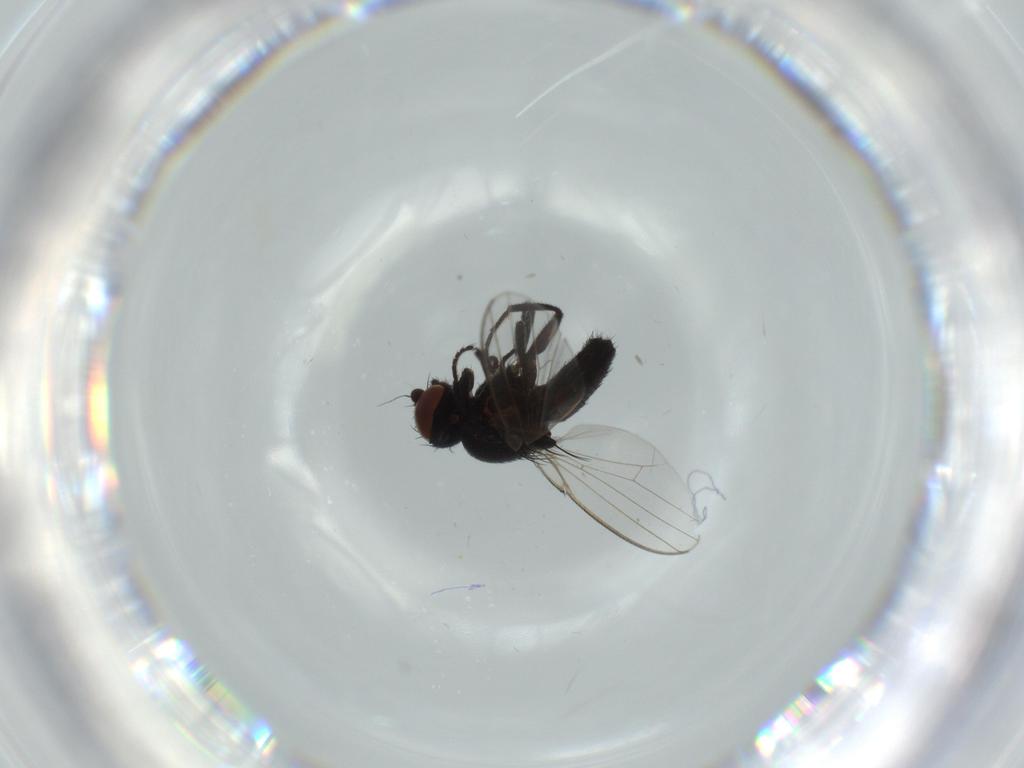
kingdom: Animalia
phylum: Arthropoda
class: Insecta
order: Diptera
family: Milichiidae
